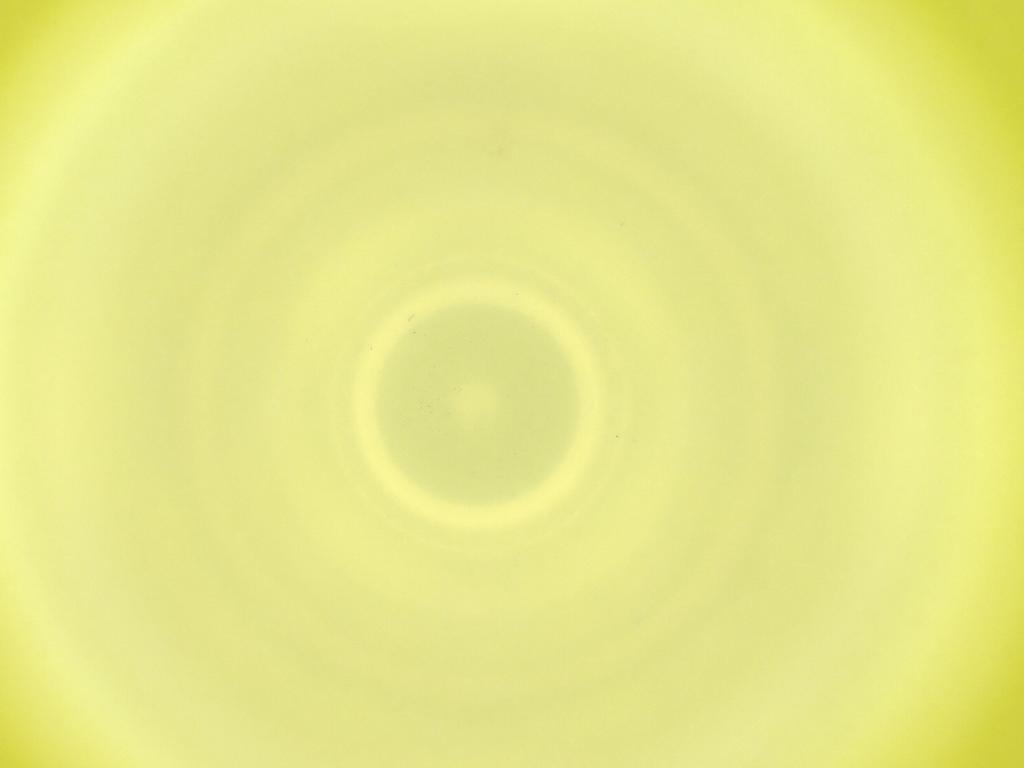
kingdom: Animalia
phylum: Arthropoda
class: Insecta
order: Diptera
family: Cecidomyiidae
